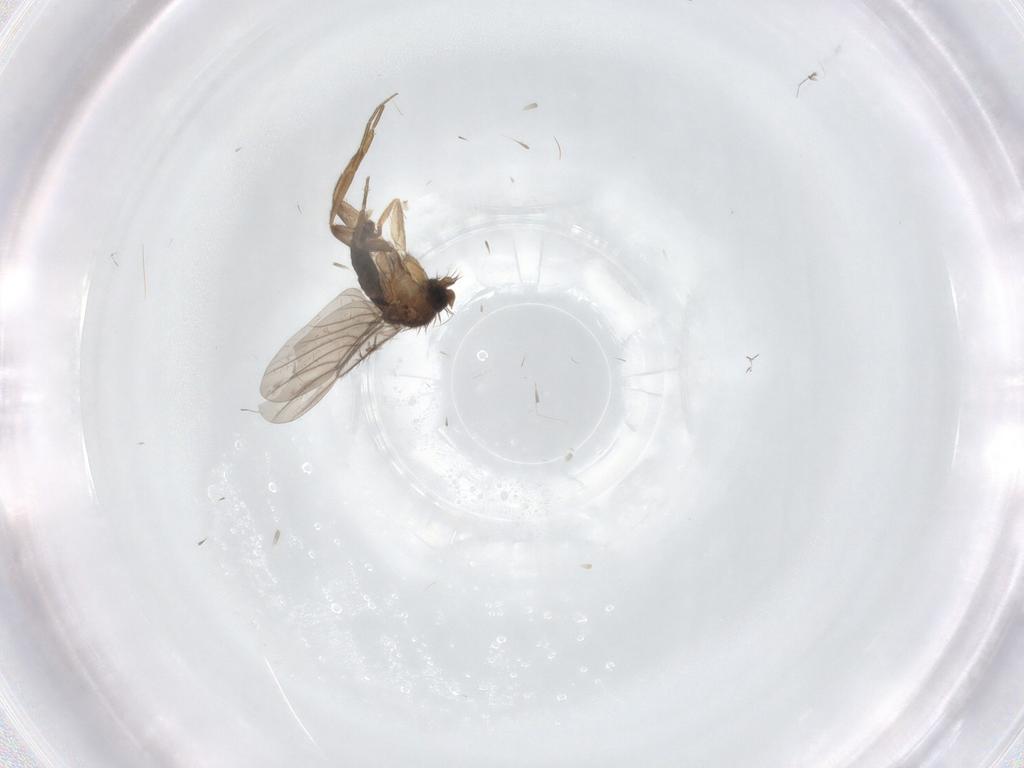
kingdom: Animalia
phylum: Arthropoda
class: Insecta
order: Diptera
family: Phoridae
